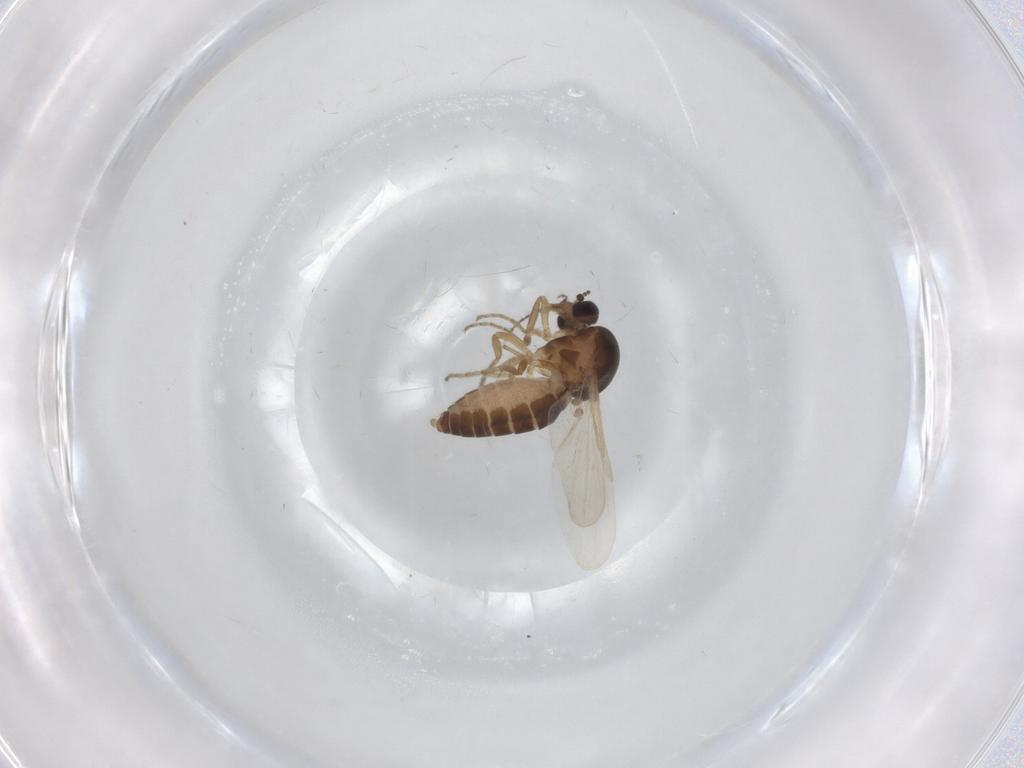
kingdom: Animalia
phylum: Arthropoda
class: Insecta
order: Diptera
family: Ceratopogonidae
